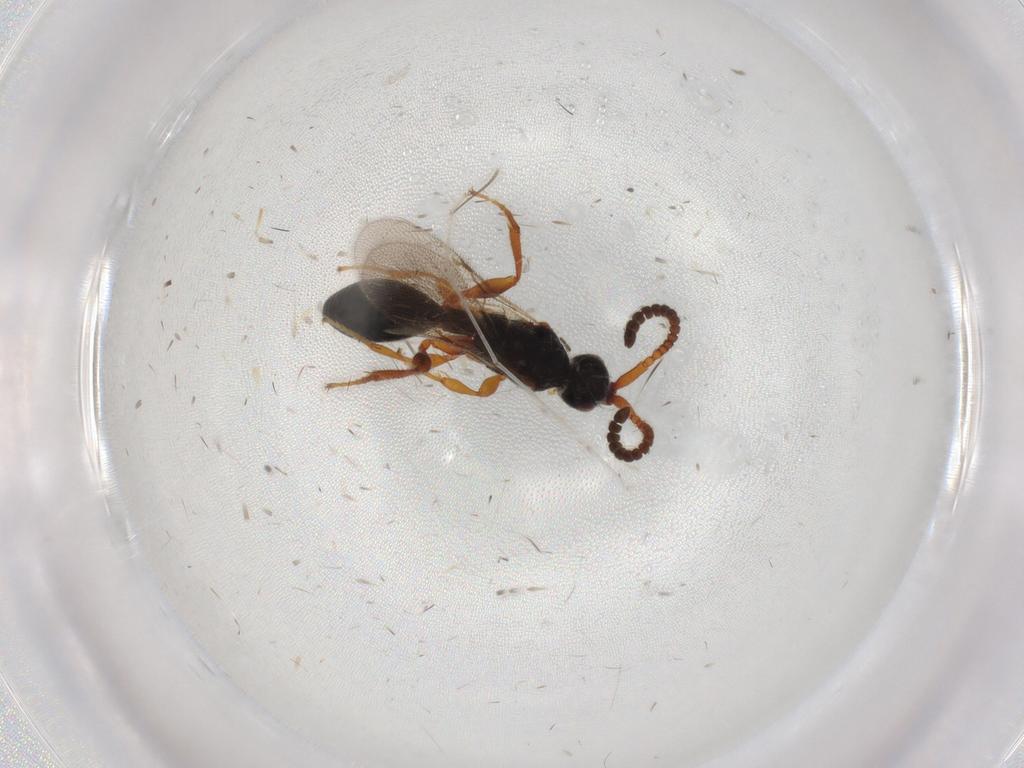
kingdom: Animalia
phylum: Arthropoda
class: Insecta
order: Hymenoptera
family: Diapriidae
